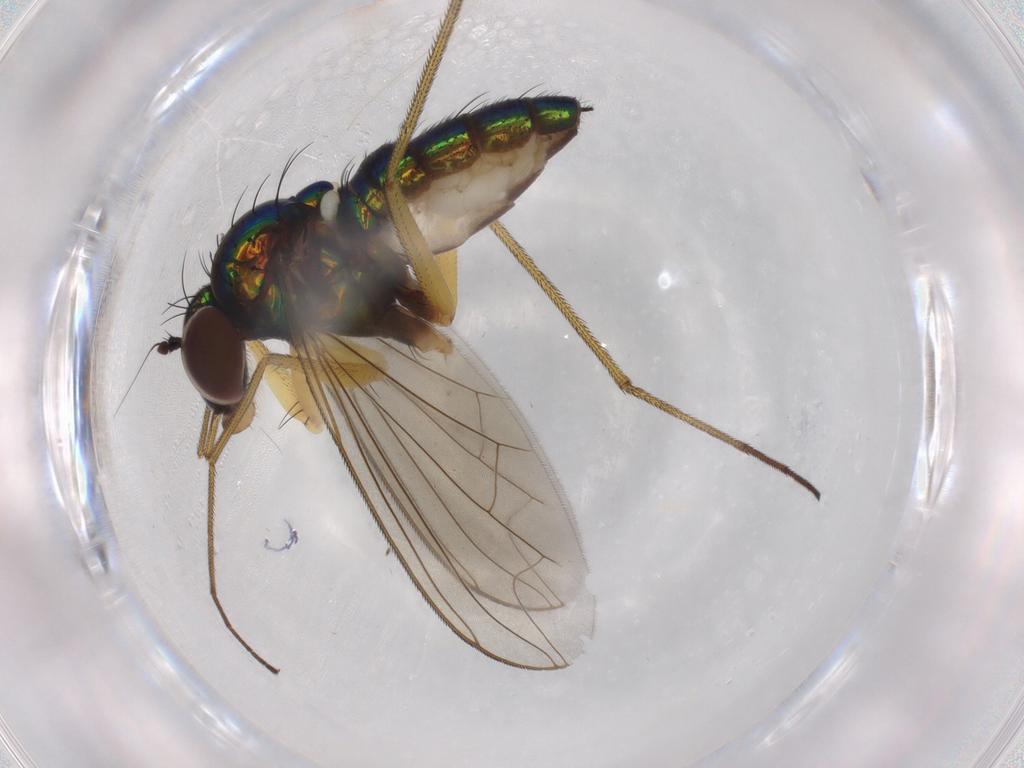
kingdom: Animalia
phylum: Arthropoda
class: Insecta
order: Diptera
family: Dolichopodidae
